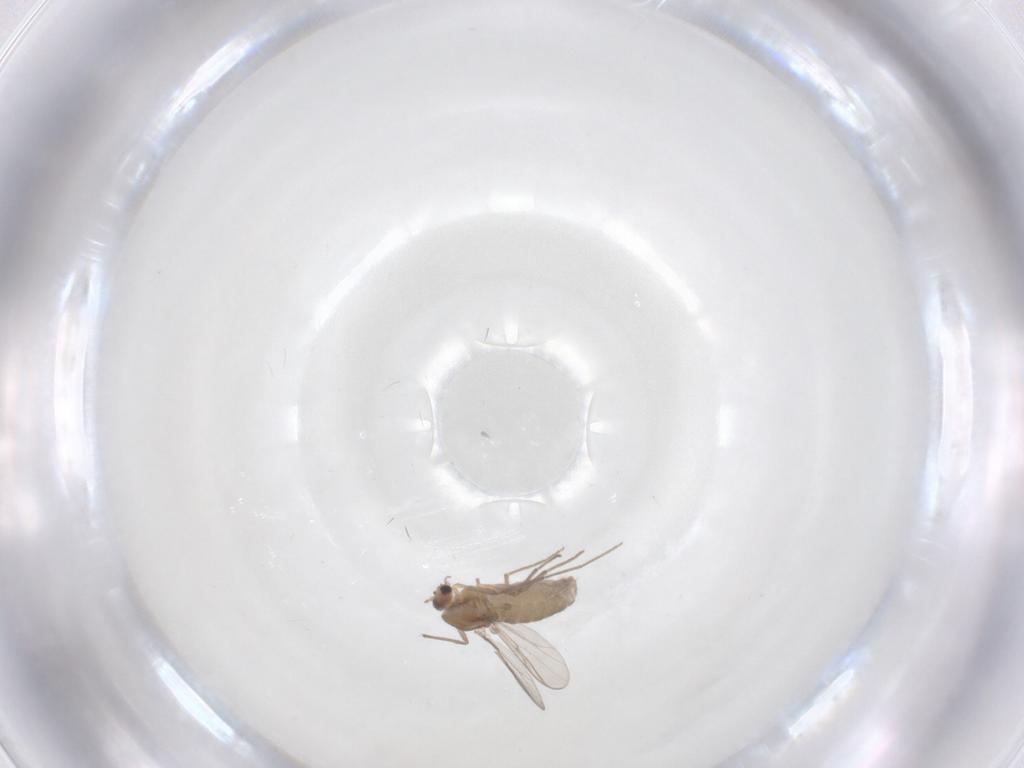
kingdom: Animalia
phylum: Arthropoda
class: Insecta
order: Diptera
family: Chironomidae
